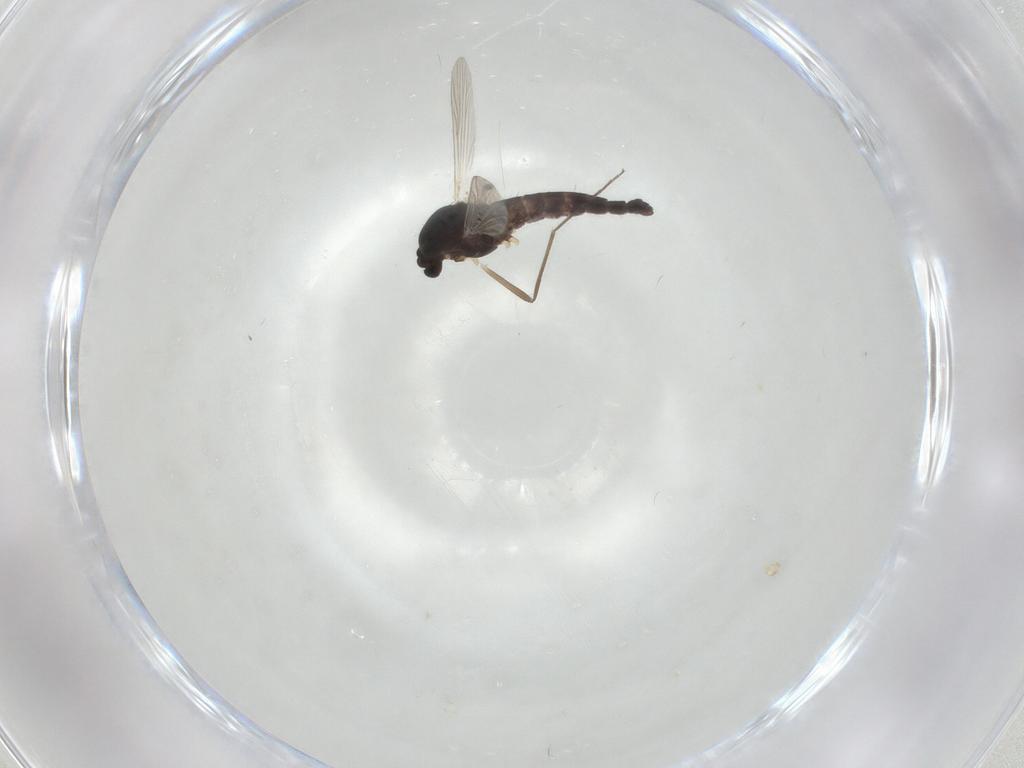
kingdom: Animalia
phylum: Arthropoda
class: Insecta
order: Diptera
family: Chironomidae
